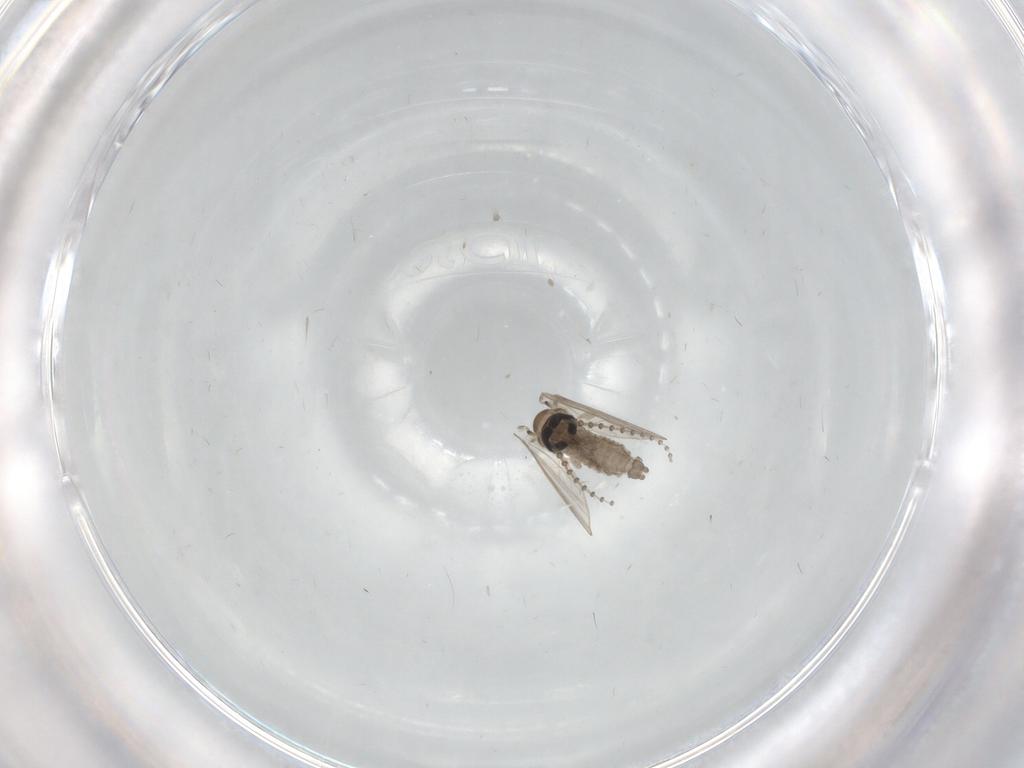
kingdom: Animalia
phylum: Arthropoda
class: Insecta
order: Diptera
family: Psychodidae
